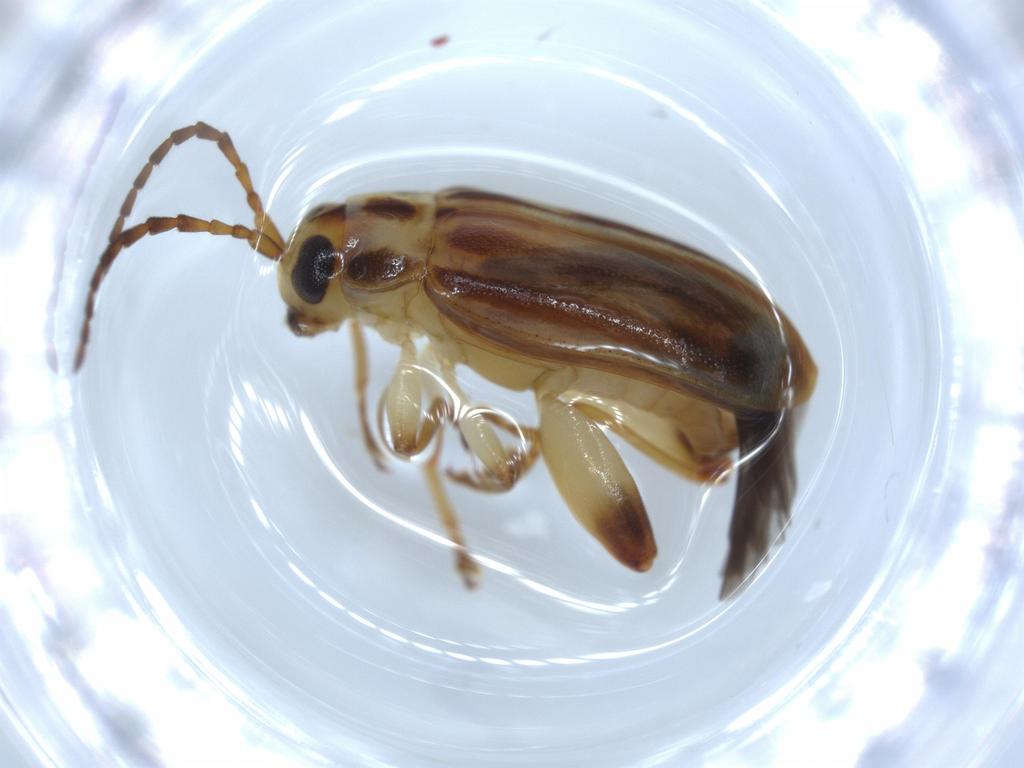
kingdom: Animalia
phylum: Arthropoda
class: Insecta
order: Coleoptera
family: Chrysomelidae
